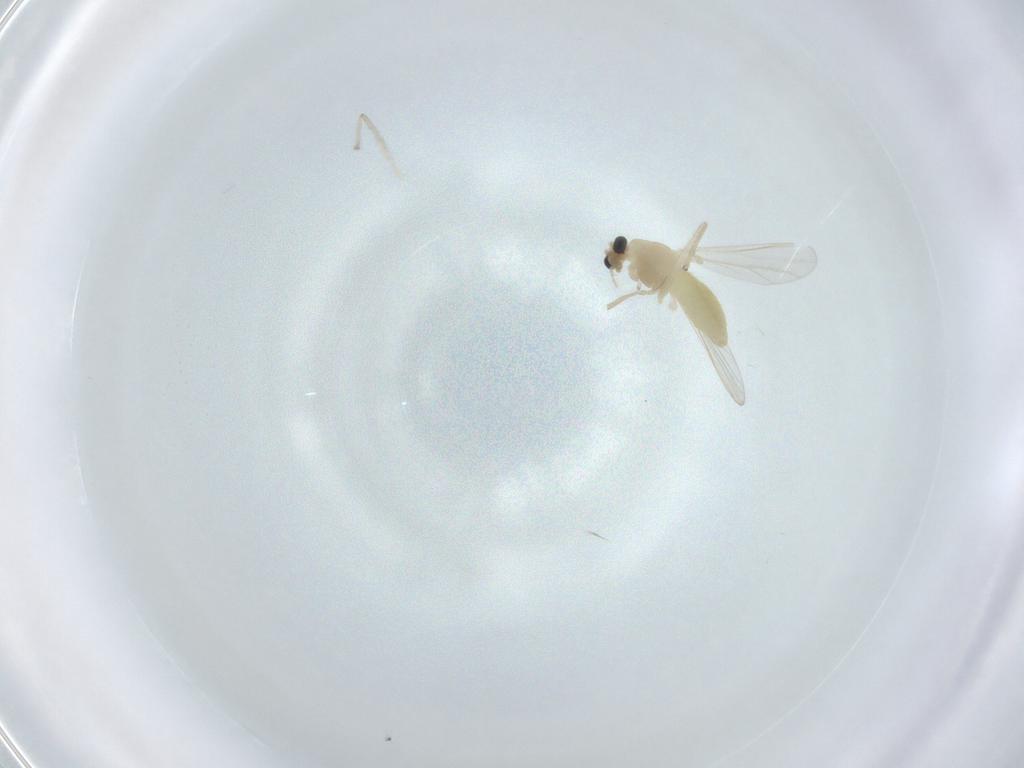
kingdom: Animalia
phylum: Arthropoda
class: Insecta
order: Diptera
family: Chironomidae
